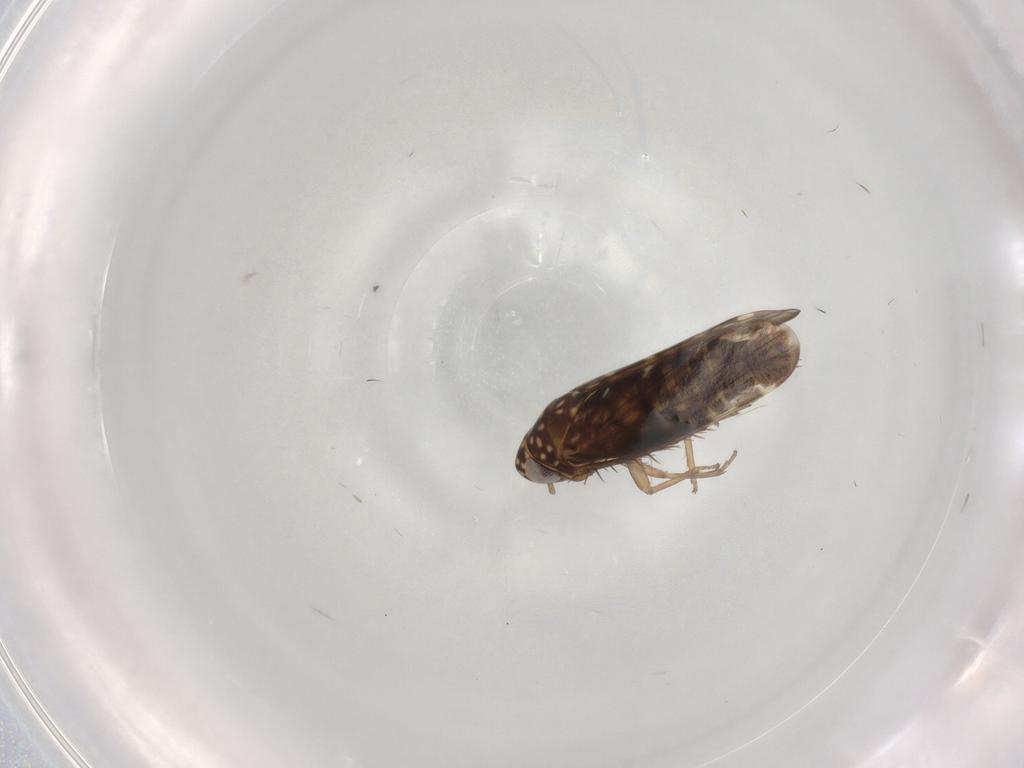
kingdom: Animalia
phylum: Arthropoda
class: Insecta
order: Hemiptera
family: Cicadellidae
